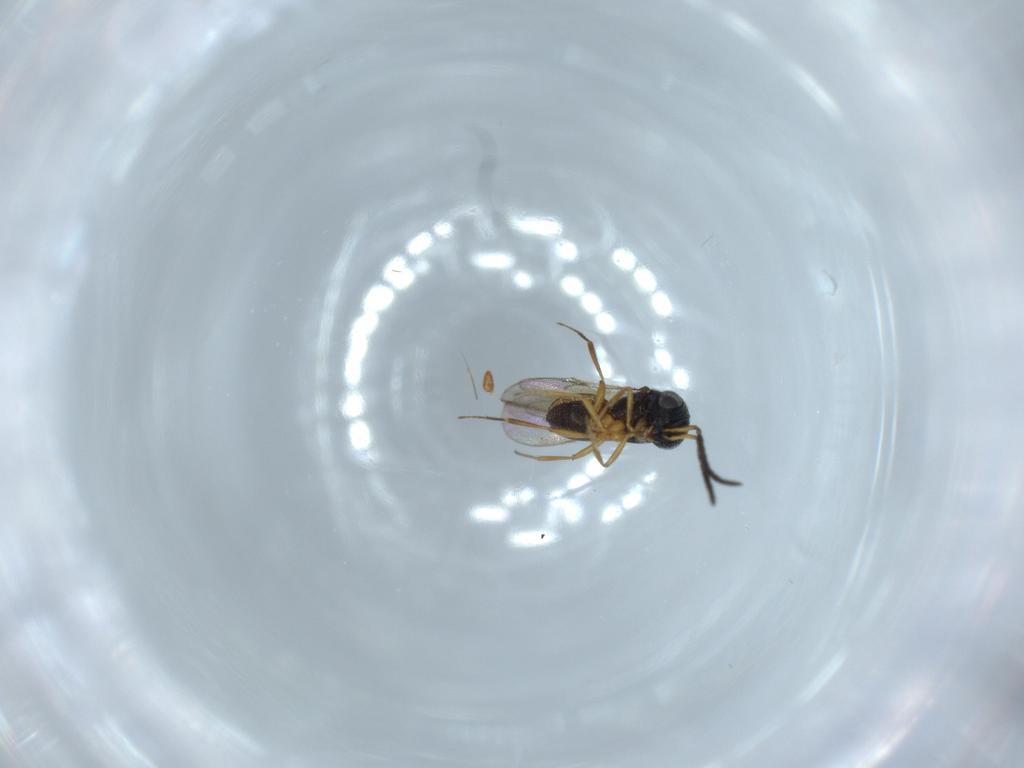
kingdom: Animalia
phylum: Arthropoda
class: Insecta
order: Hymenoptera
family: Scelionidae
